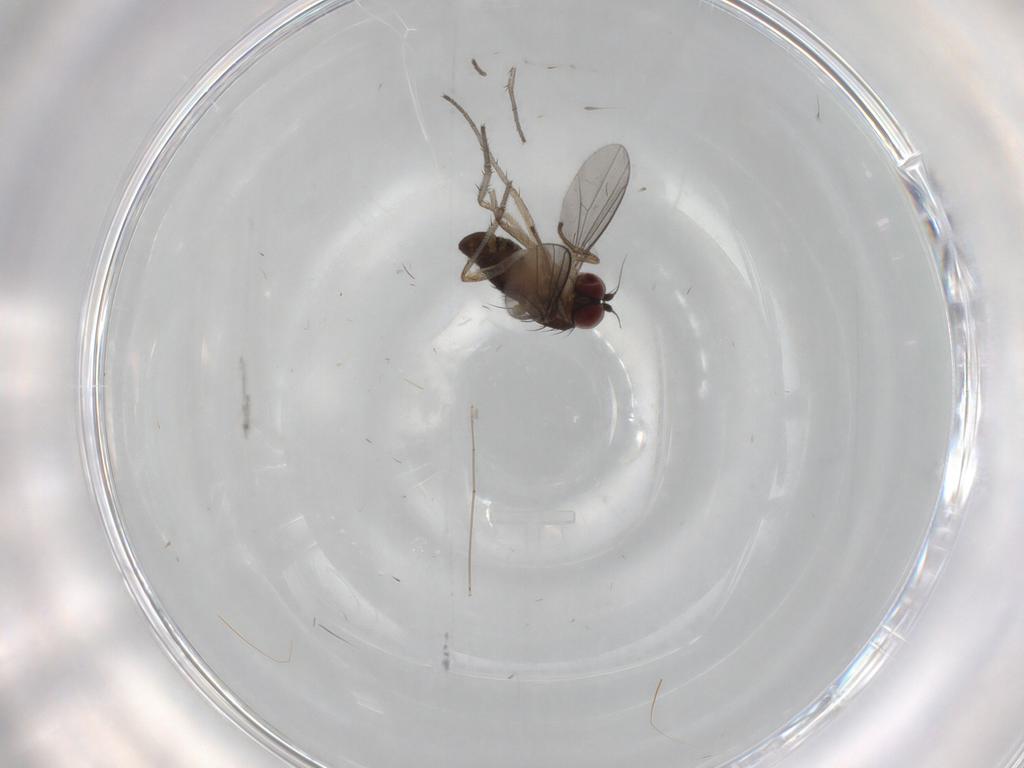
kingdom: Animalia
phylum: Arthropoda
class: Insecta
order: Diptera
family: Dolichopodidae
